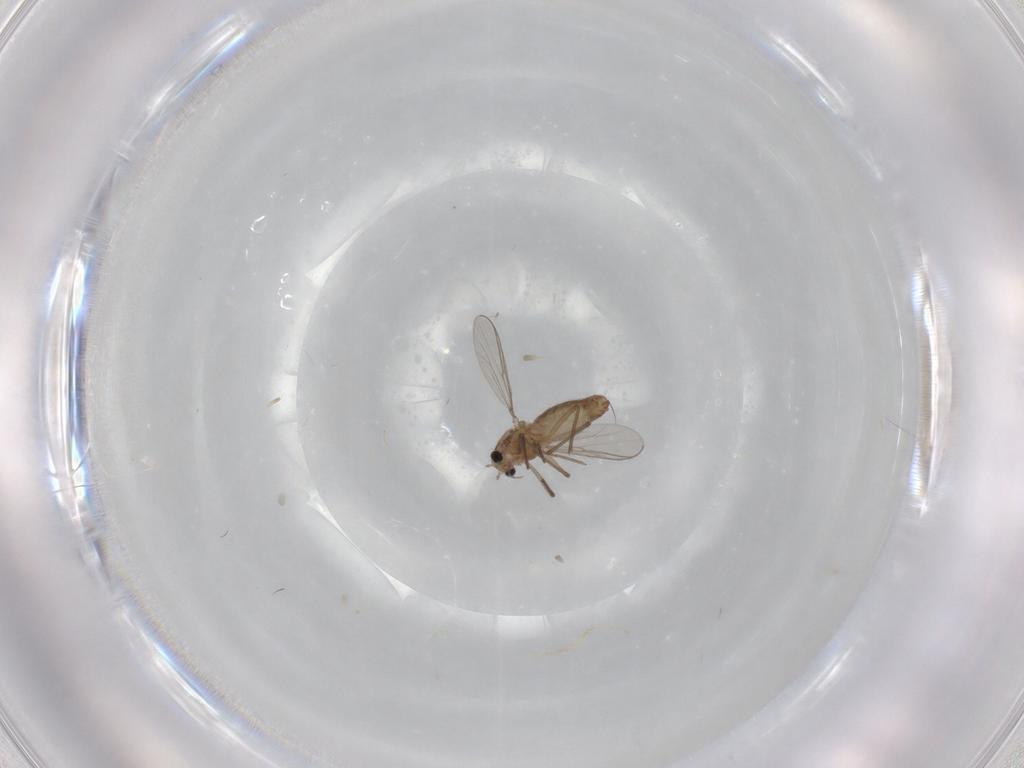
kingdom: Animalia
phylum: Arthropoda
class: Insecta
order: Diptera
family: Chironomidae
